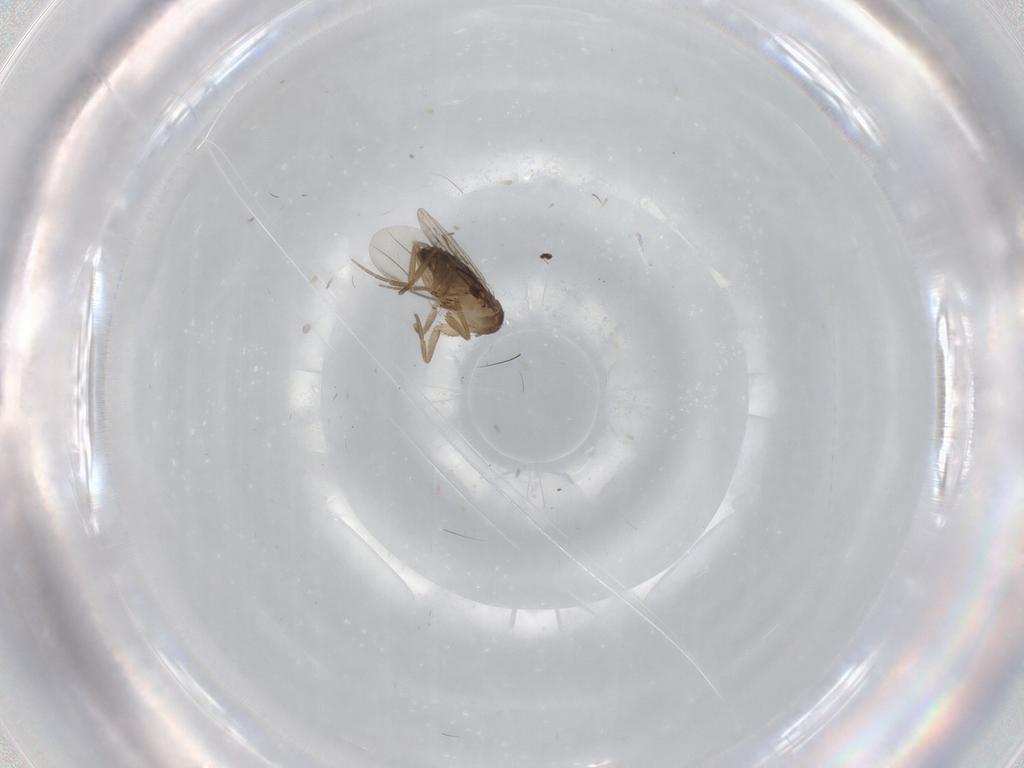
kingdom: Animalia
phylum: Arthropoda
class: Insecta
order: Diptera
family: Phoridae
